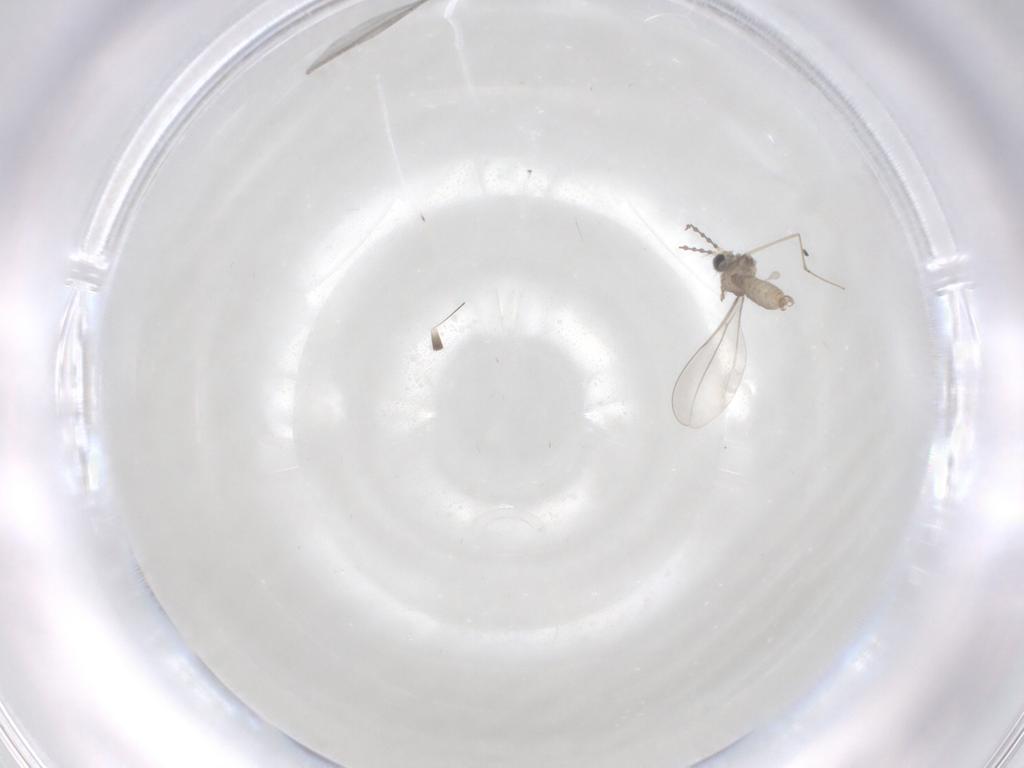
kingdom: Animalia
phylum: Arthropoda
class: Insecta
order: Diptera
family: Cecidomyiidae
